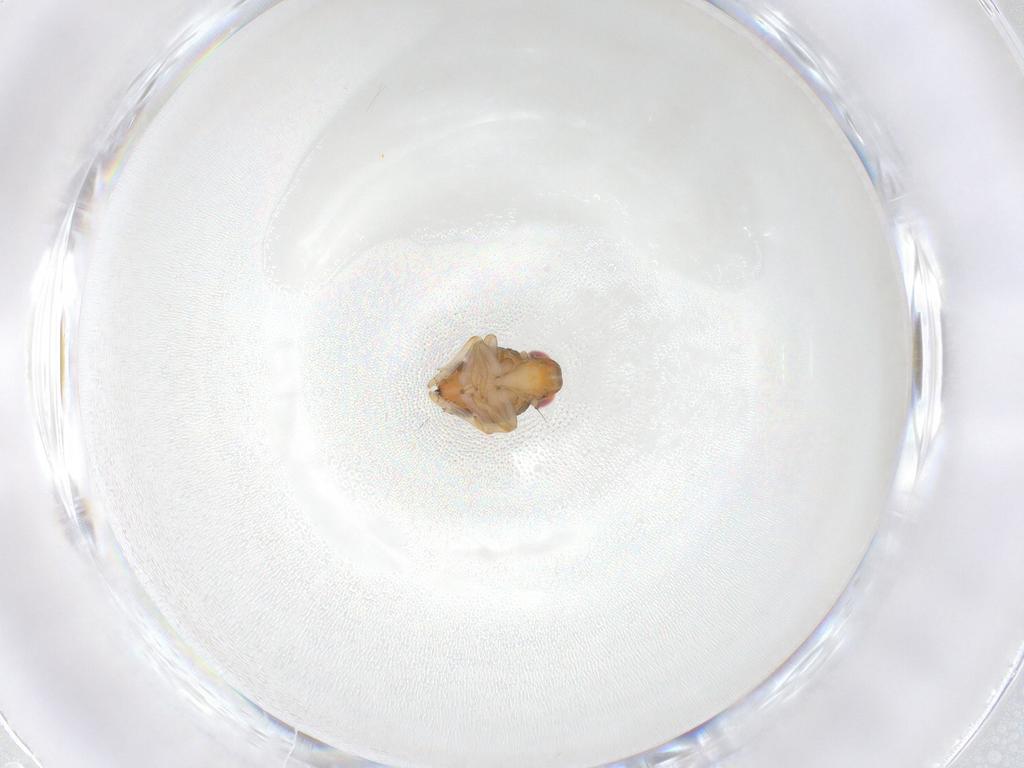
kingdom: Animalia
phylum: Arthropoda
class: Insecta
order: Hemiptera
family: Issidae
